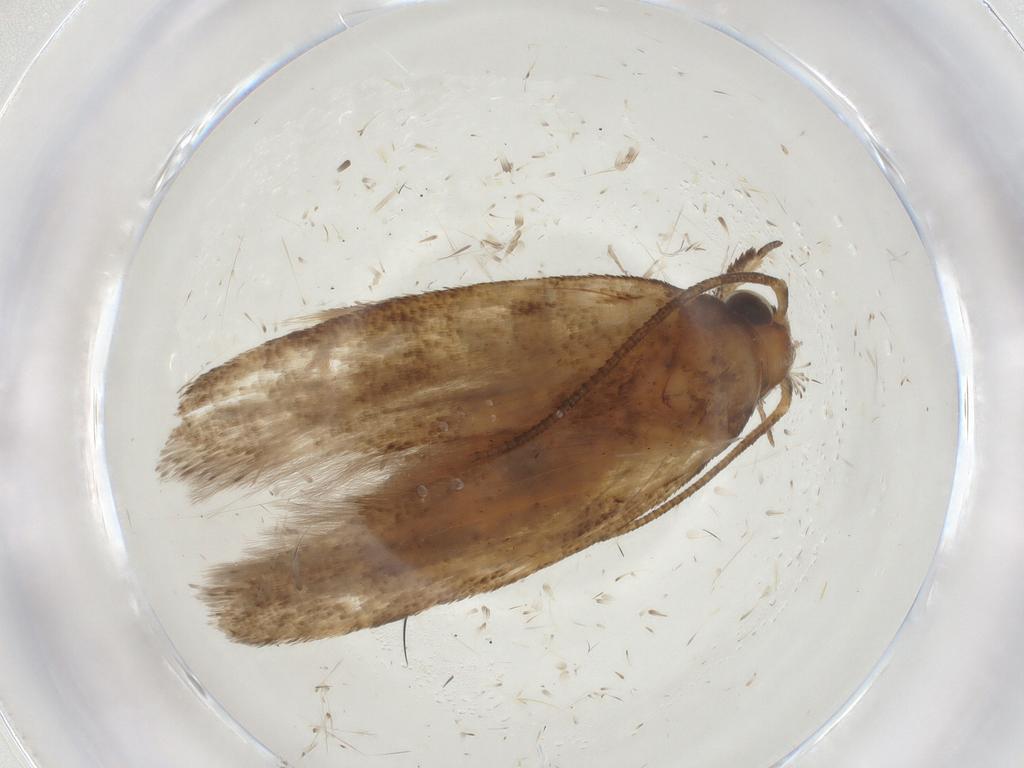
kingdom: Animalia
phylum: Arthropoda
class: Insecta
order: Lepidoptera
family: Gelechiidae
